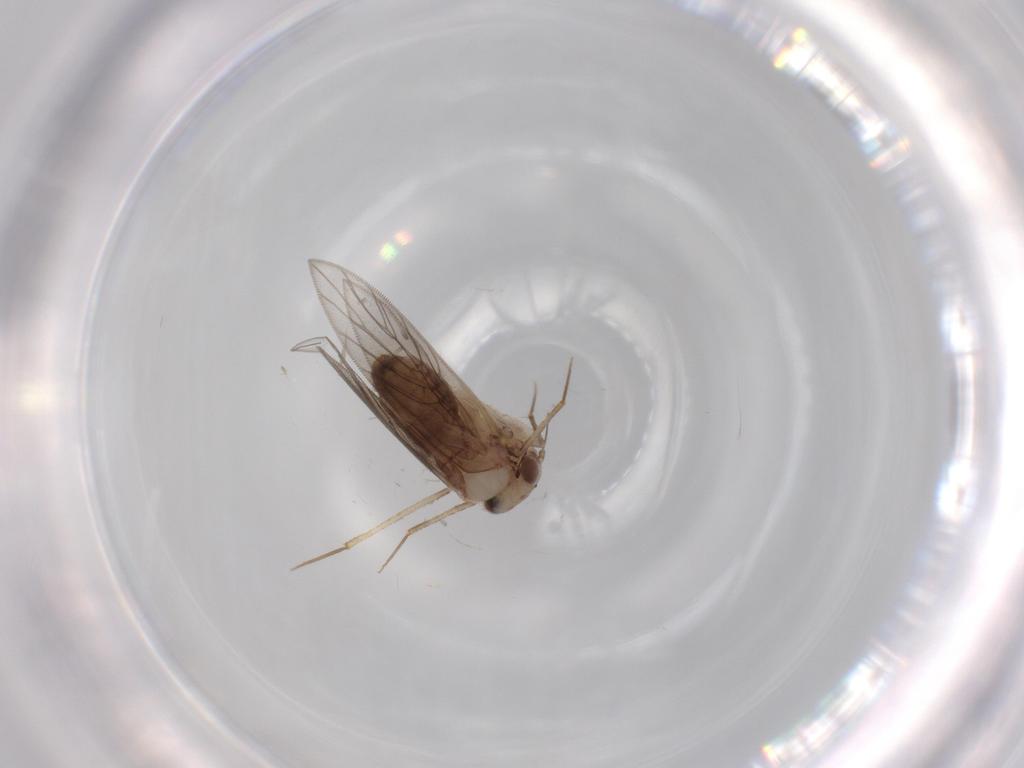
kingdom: Animalia
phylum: Arthropoda
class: Insecta
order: Psocodea
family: Lepidopsocidae
